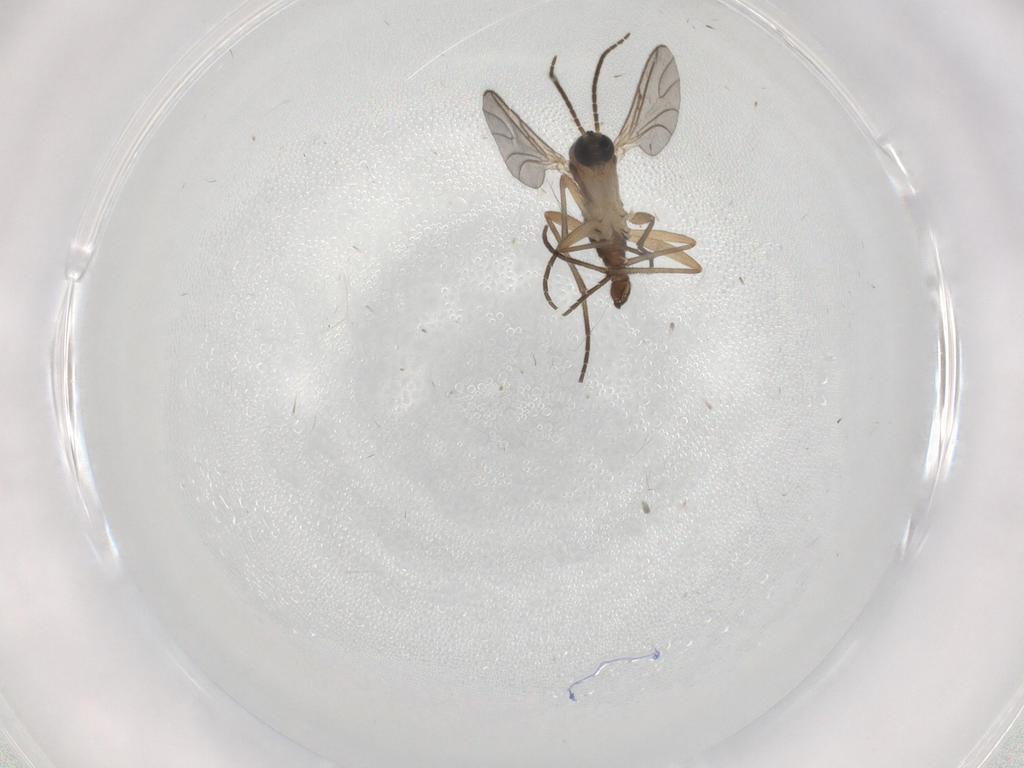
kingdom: Animalia
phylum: Arthropoda
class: Insecta
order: Diptera
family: Sciaridae
